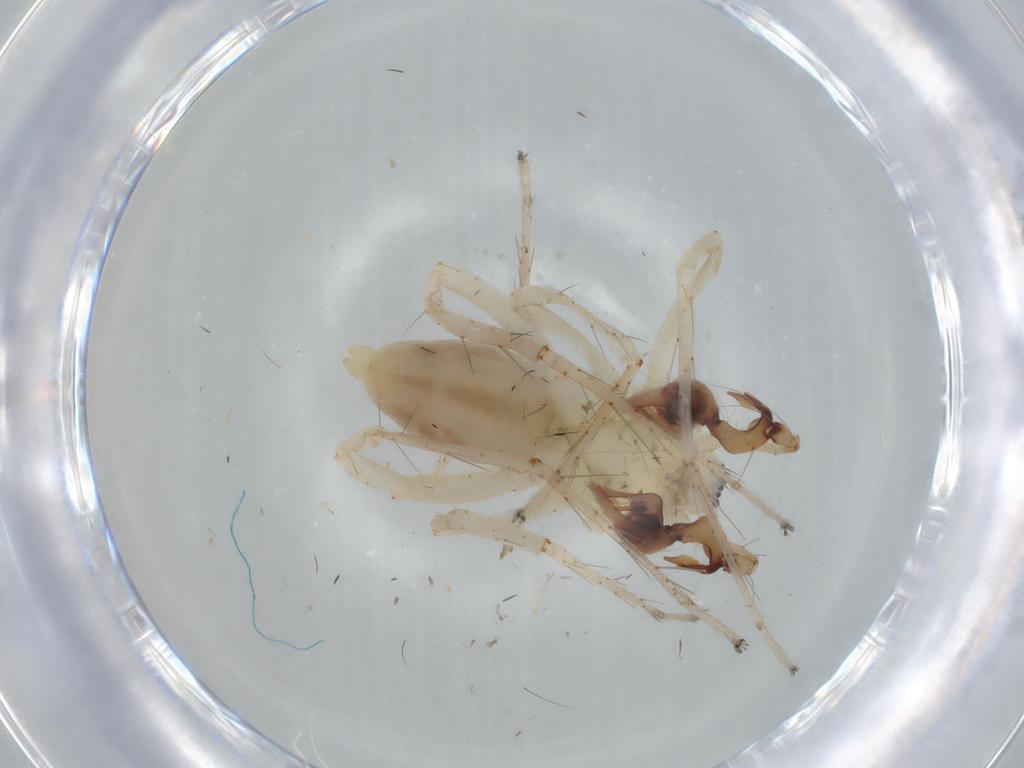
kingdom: Animalia
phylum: Arthropoda
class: Arachnida
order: Araneae
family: Anyphaenidae
